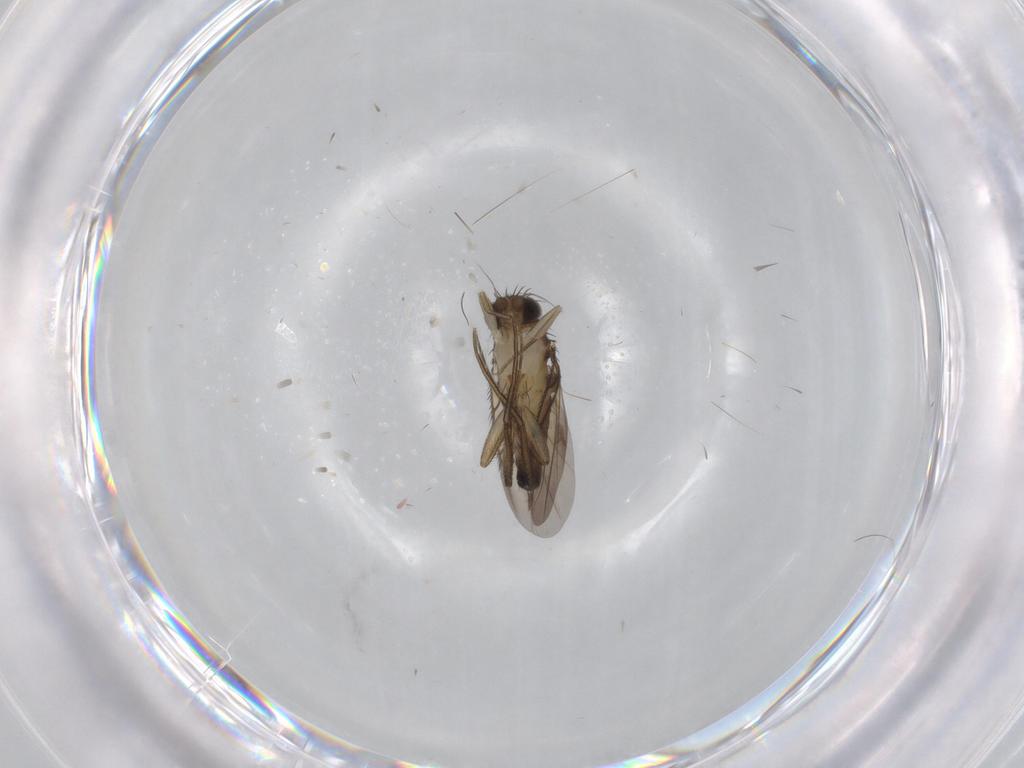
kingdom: Animalia
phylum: Arthropoda
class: Insecta
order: Diptera
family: Phoridae
